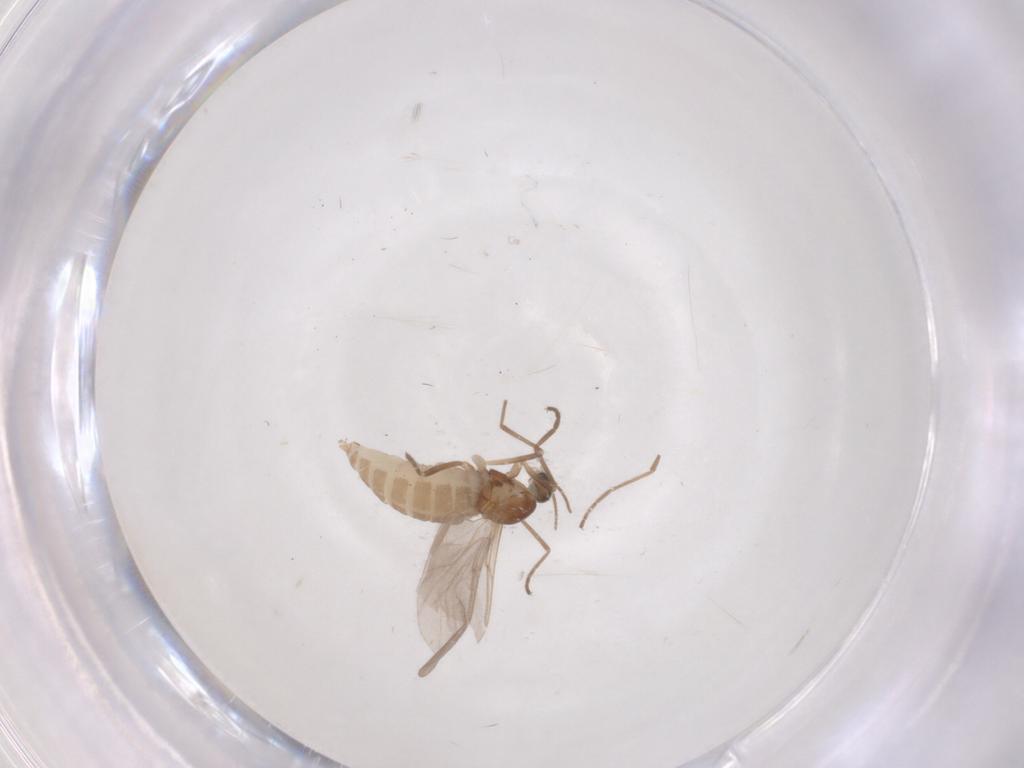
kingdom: Animalia
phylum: Arthropoda
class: Insecta
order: Diptera
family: Cecidomyiidae
